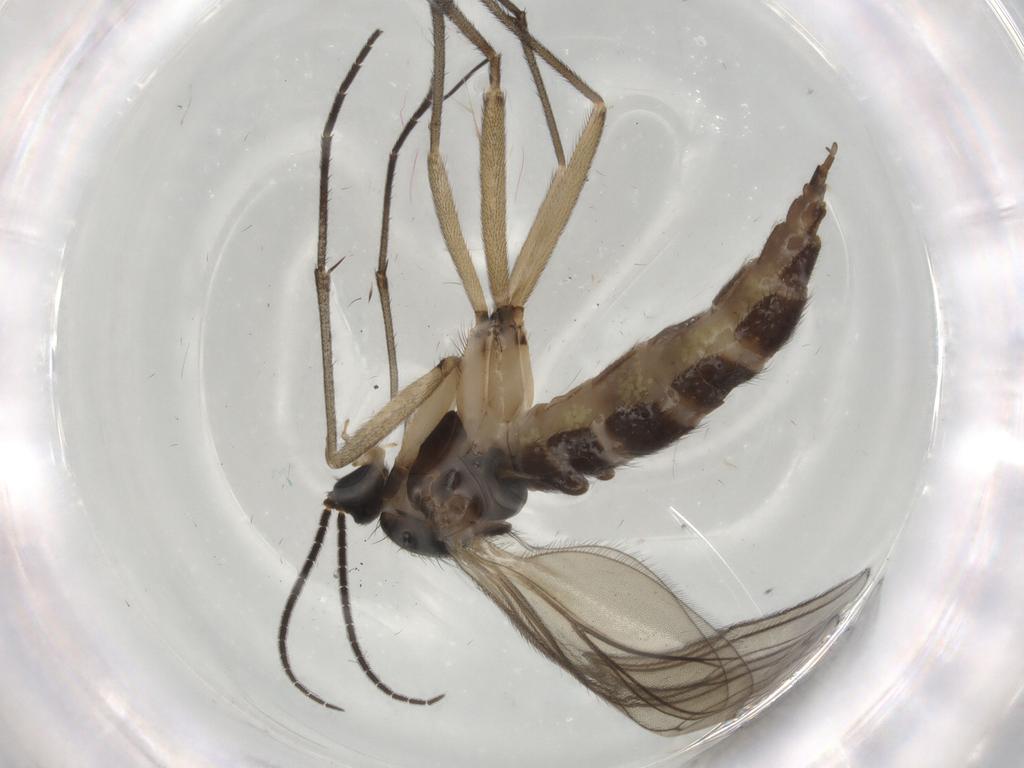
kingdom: Animalia
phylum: Arthropoda
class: Insecta
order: Diptera
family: Sciaridae
